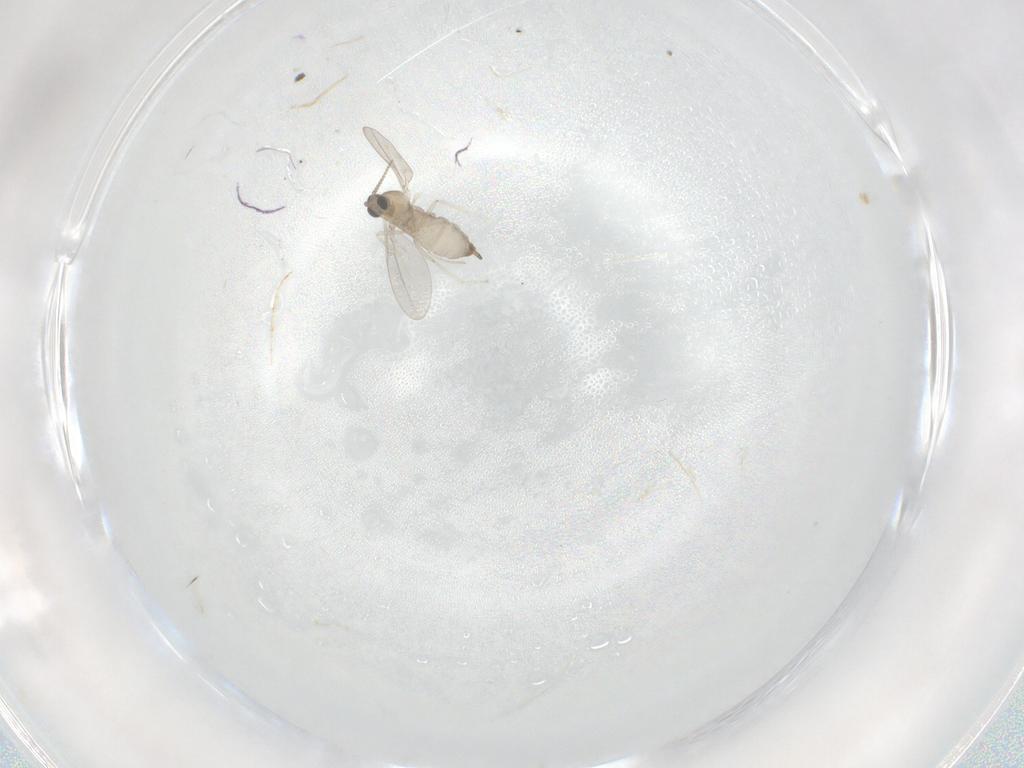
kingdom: Animalia
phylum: Arthropoda
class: Insecta
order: Diptera
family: Cecidomyiidae
